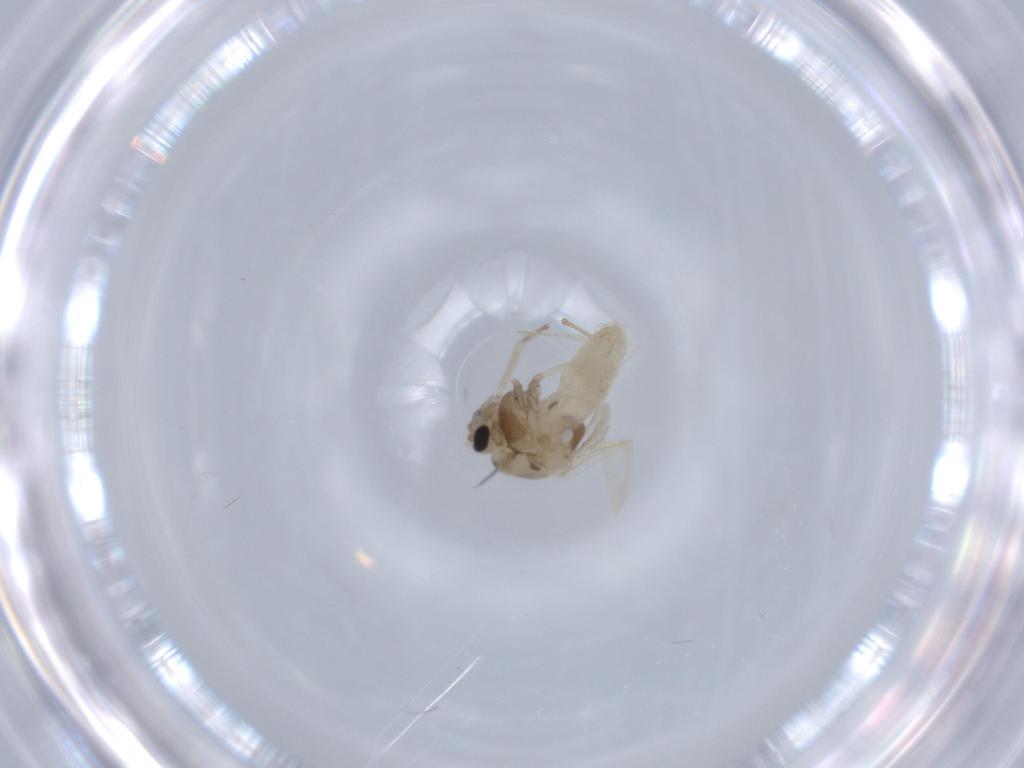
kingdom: Animalia
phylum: Arthropoda
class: Insecta
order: Diptera
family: Chironomidae
